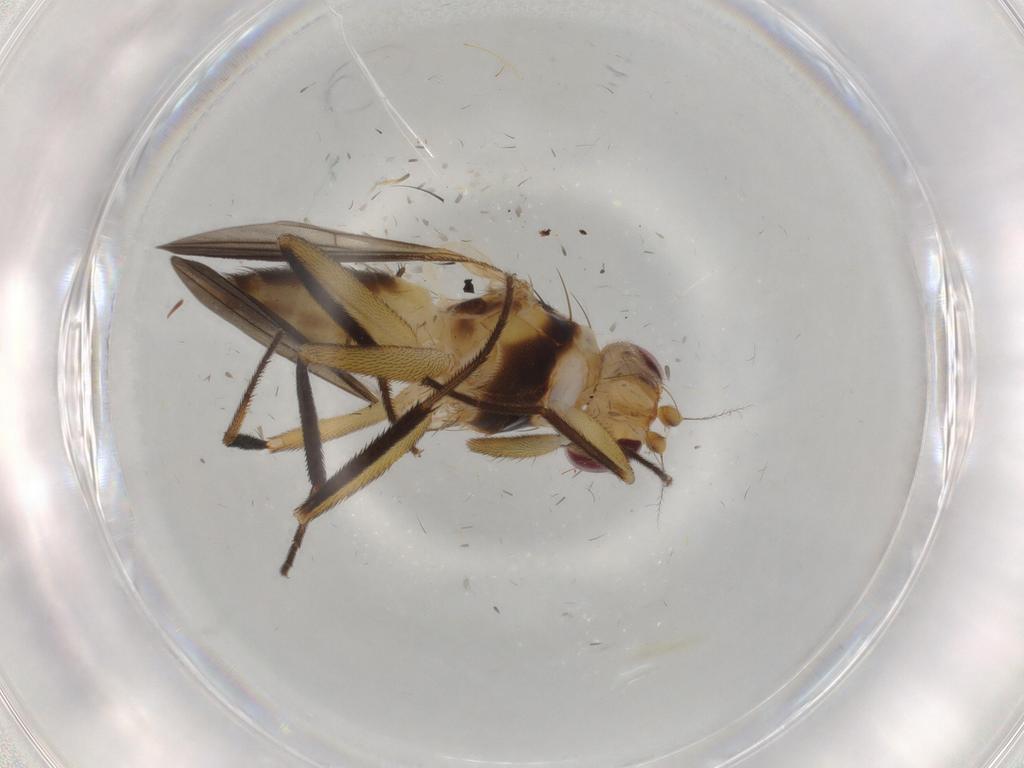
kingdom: Animalia
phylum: Arthropoda
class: Insecta
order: Diptera
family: Clusiidae
